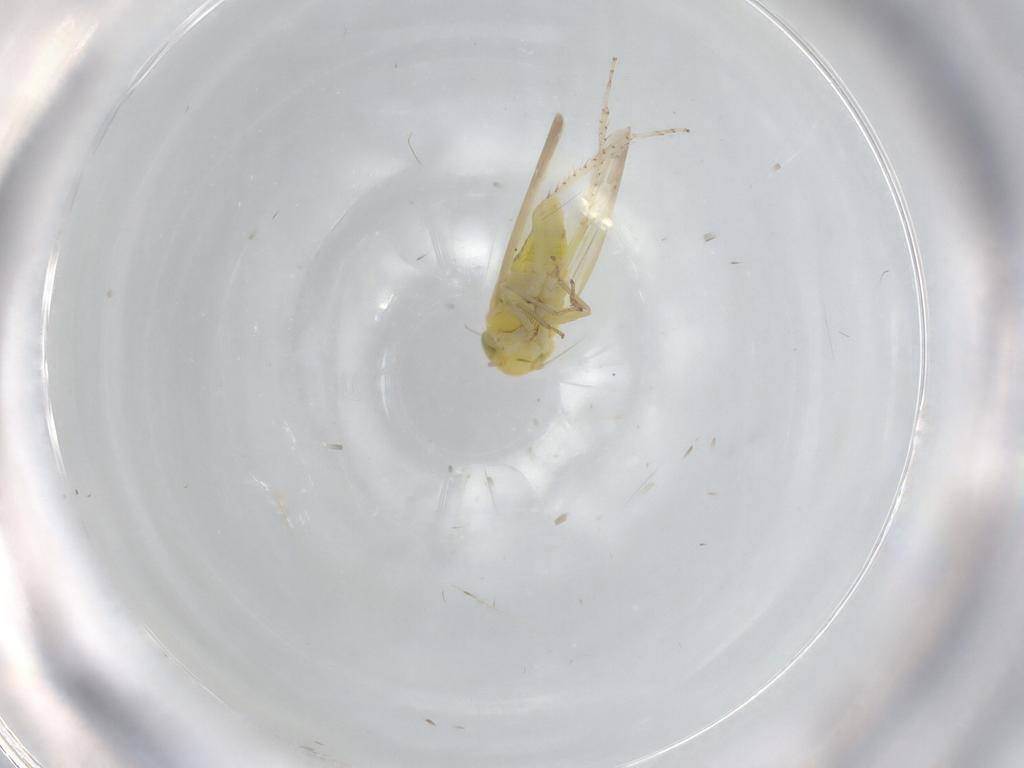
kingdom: Animalia
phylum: Arthropoda
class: Insecta
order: Hemiptera
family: Cicadellidae
